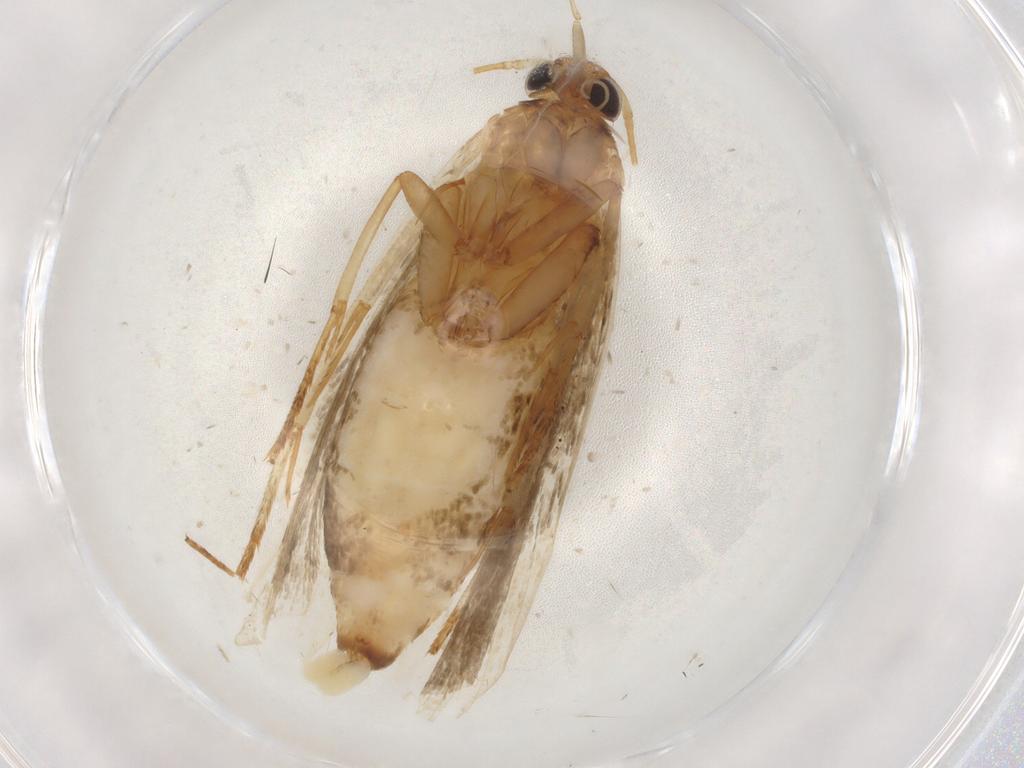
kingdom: Animalia
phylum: Arthropoda
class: Insecta
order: Lepidoptera
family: Gelechiidae
